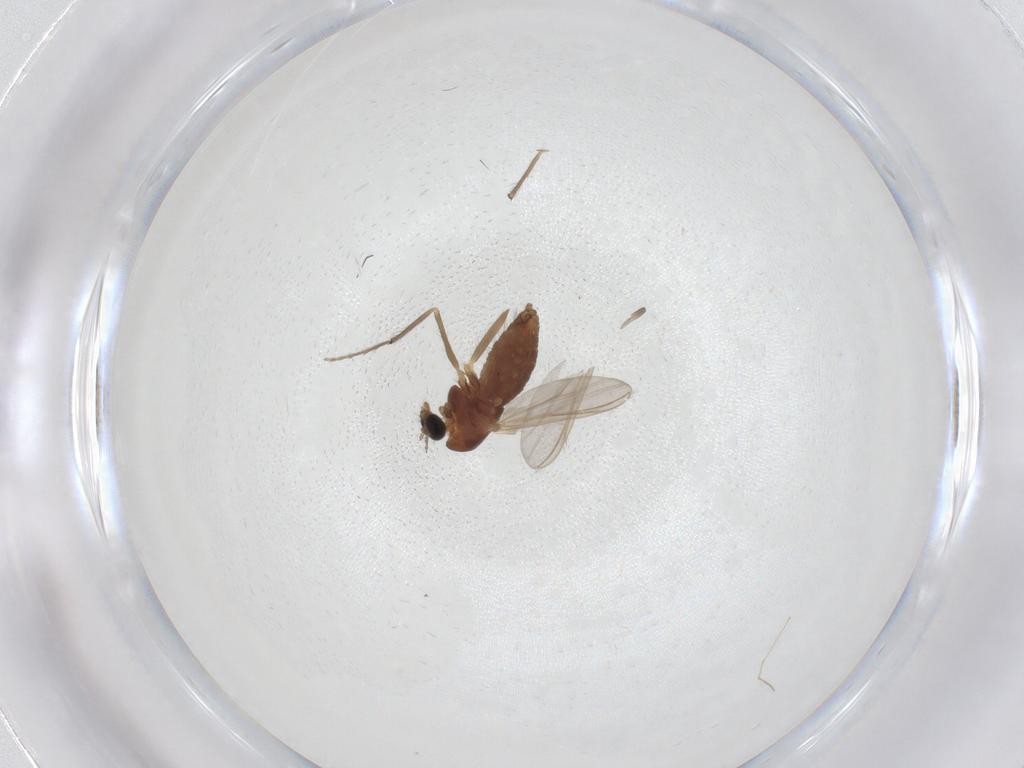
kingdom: Animalia
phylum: Arthropoda
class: Insecta
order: Diptera
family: Chironomidae
